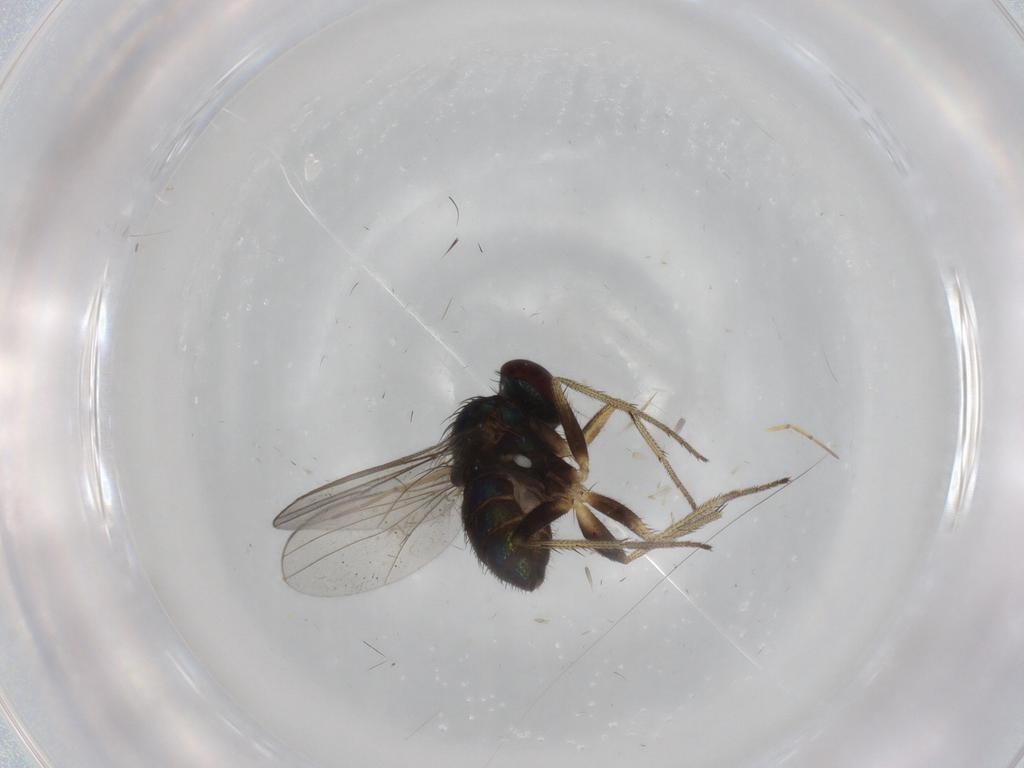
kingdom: Animalia
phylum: Arthropoda
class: Insecta
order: Diptera
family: Chironomidae
